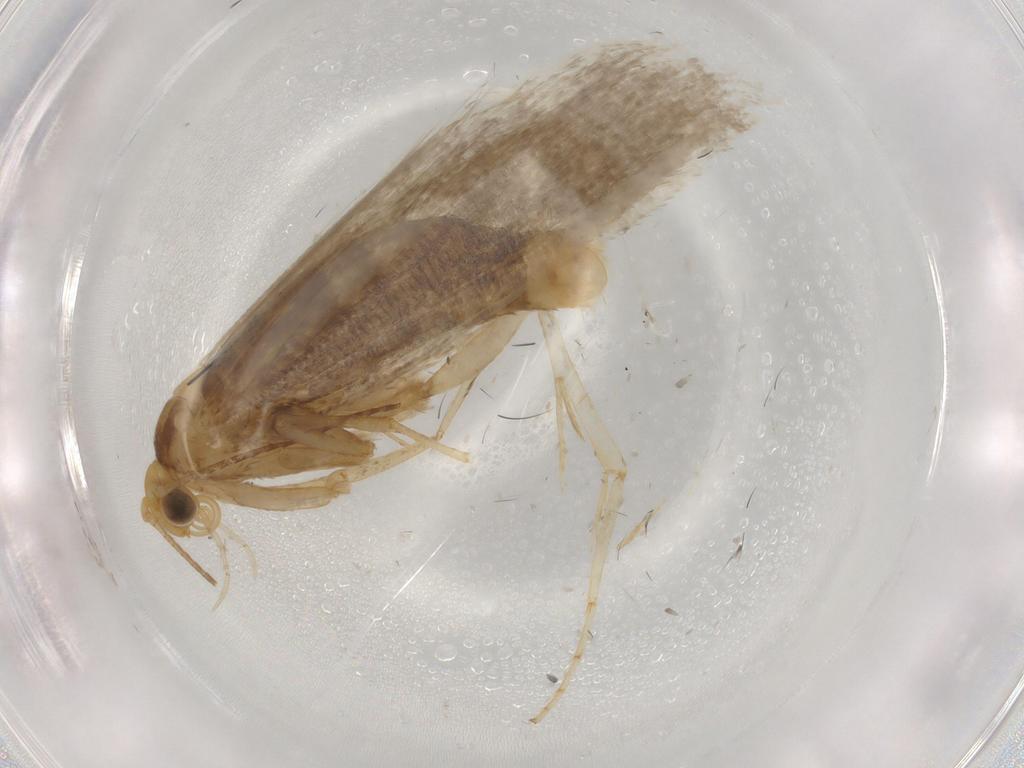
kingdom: Animalia
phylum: Arthropoda
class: Insecta
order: Lepidoptera
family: Argyresthiidae
